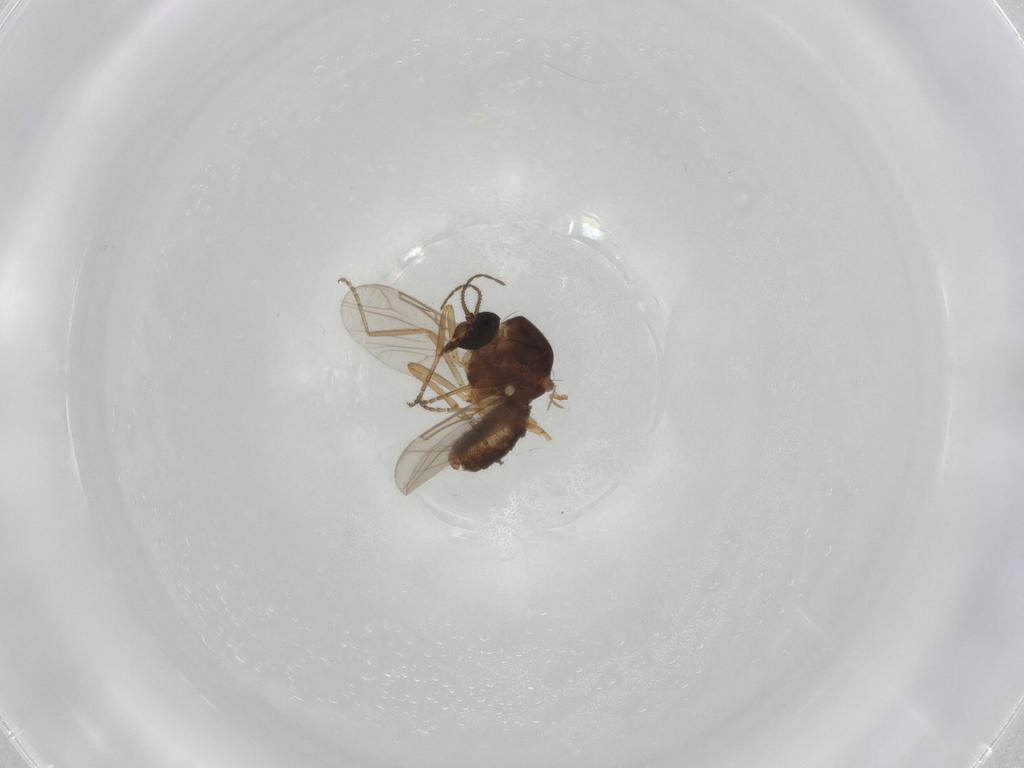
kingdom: Animalia
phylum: Arthropoda
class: Insecta
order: Diptera
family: Ceratopogonidae
